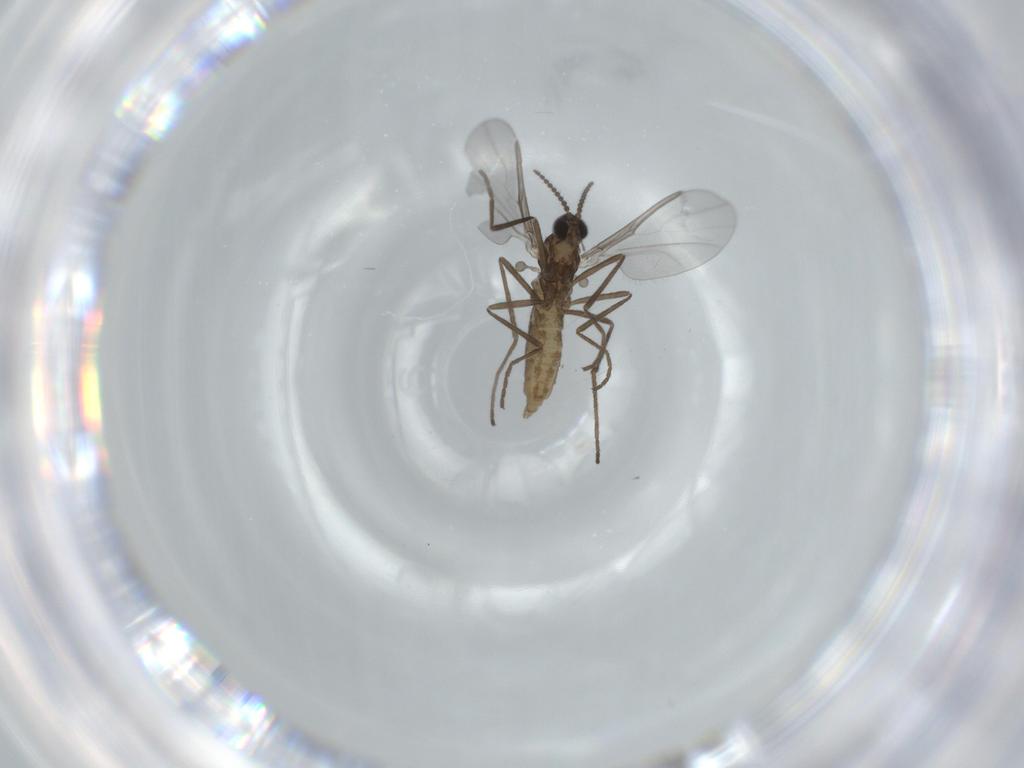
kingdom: Animalia
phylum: Arthropoda
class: Insecta
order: Diptera
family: Cecidomyiidae
